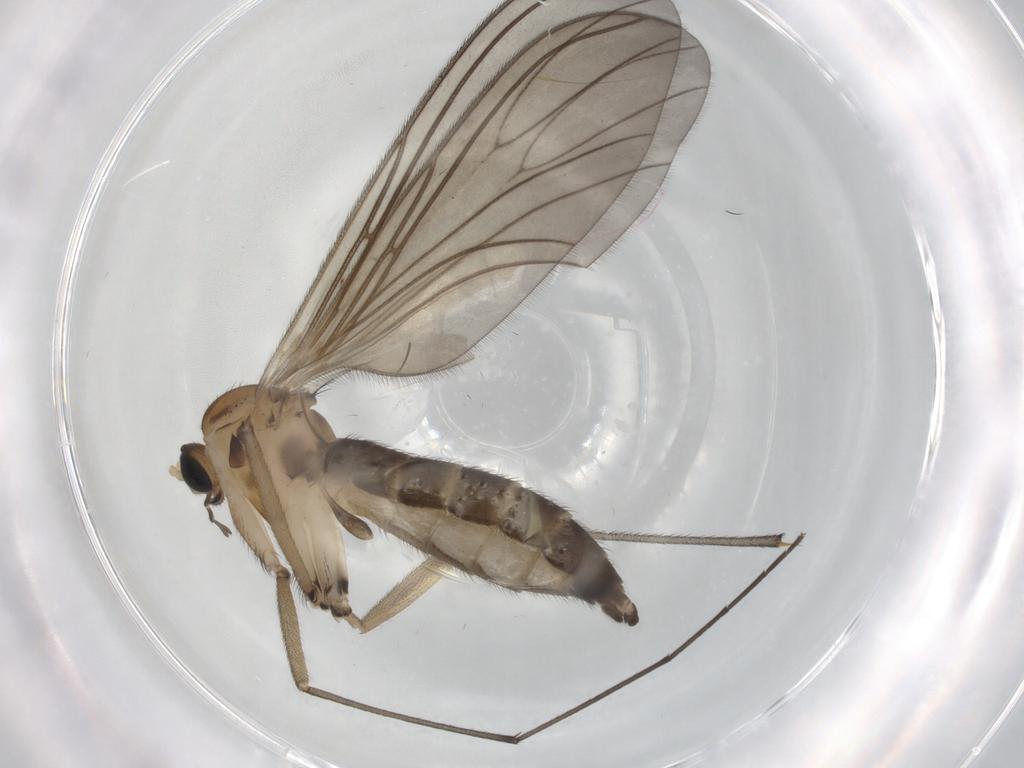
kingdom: Animalia
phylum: Arthropoda
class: Insecta
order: Diptera
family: Sciaridae
